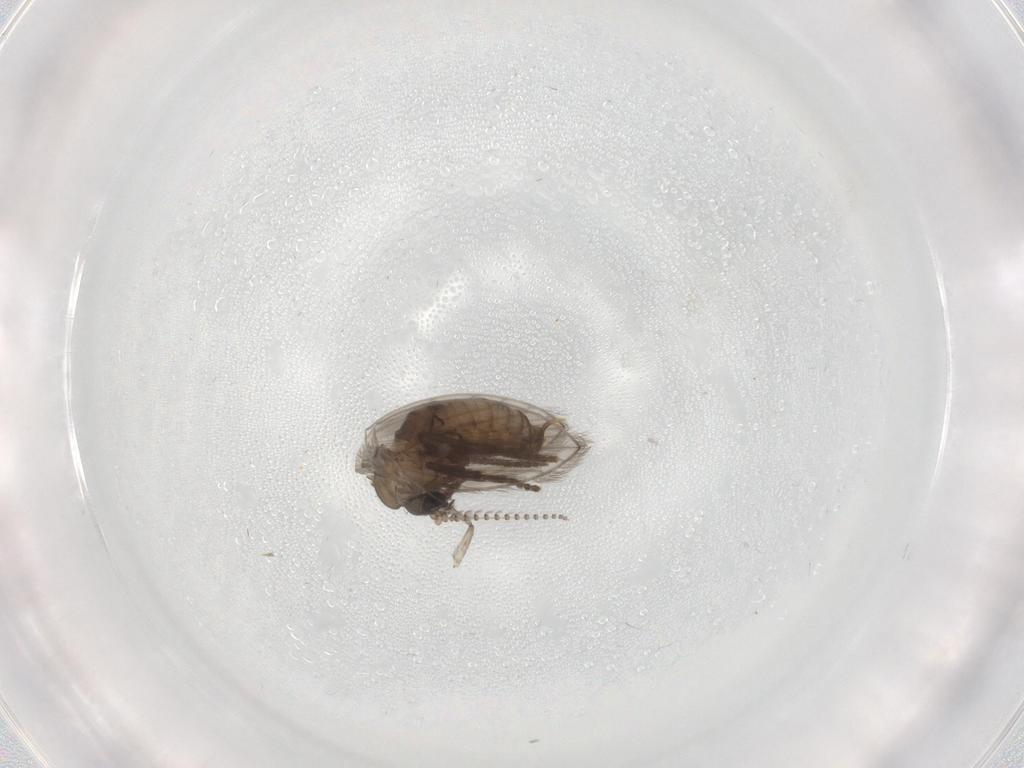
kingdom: Animalia
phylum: Arthropoda
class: Insecta
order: Diptera
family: Psychodidae
